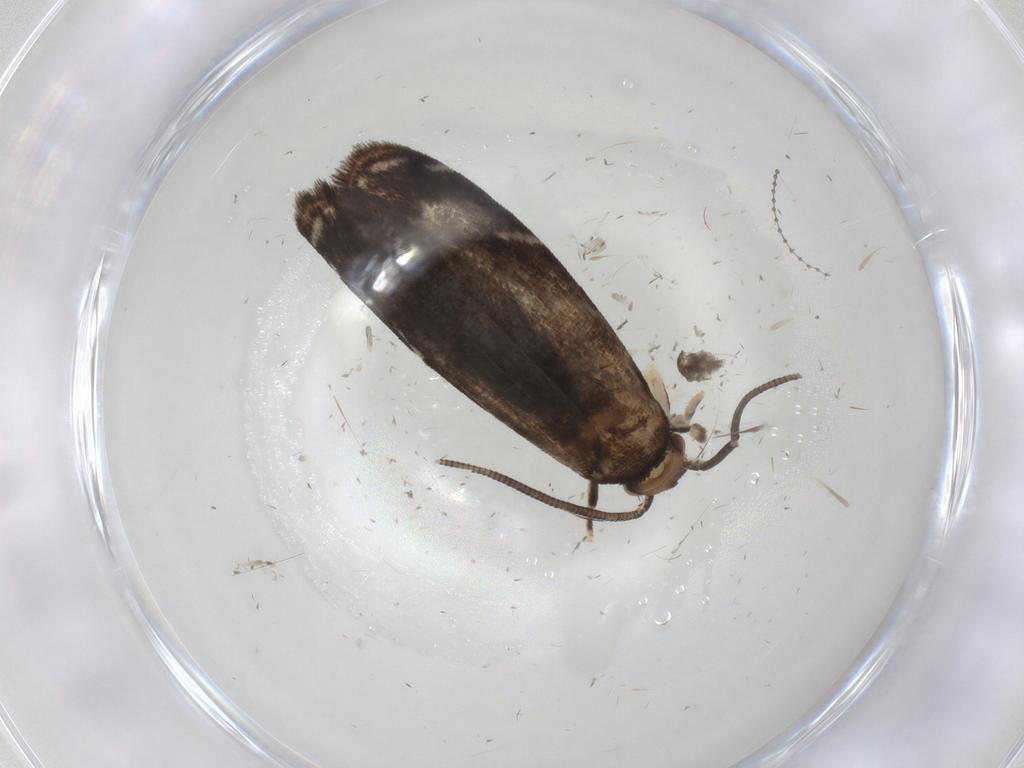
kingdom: Animalia
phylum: Arthropoda
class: Insecta
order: Lepidoptera
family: Dryadaulidae
